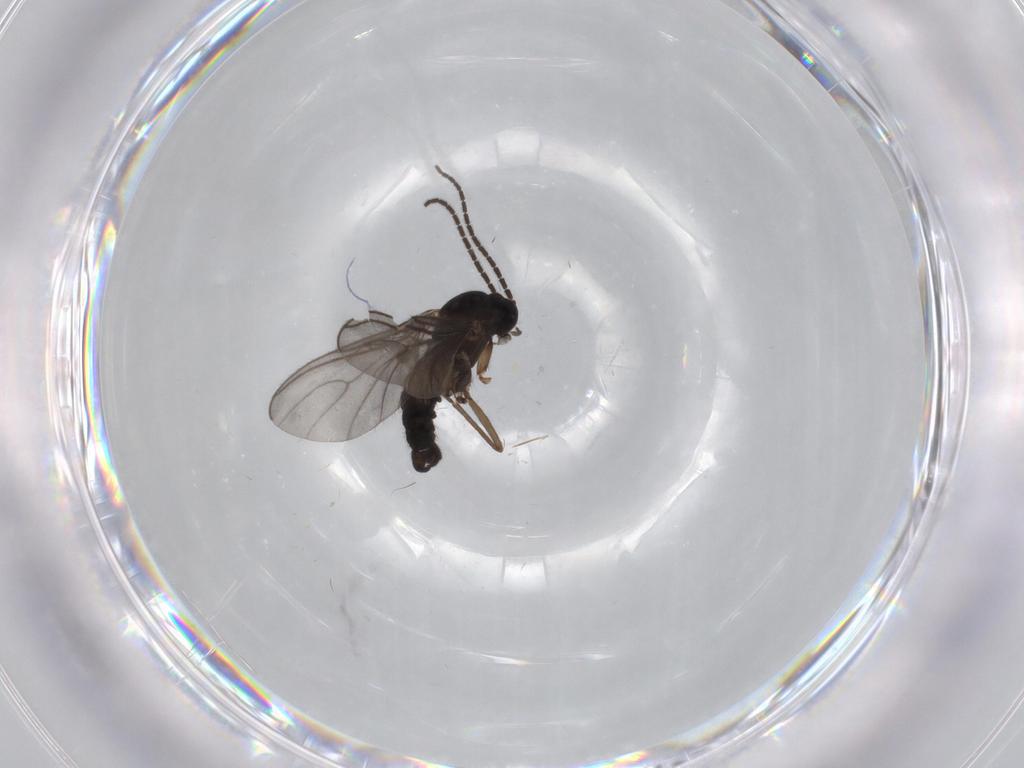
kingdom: Animalia
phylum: Arthropoda
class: Insecta
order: Diptera
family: Sciaridae
